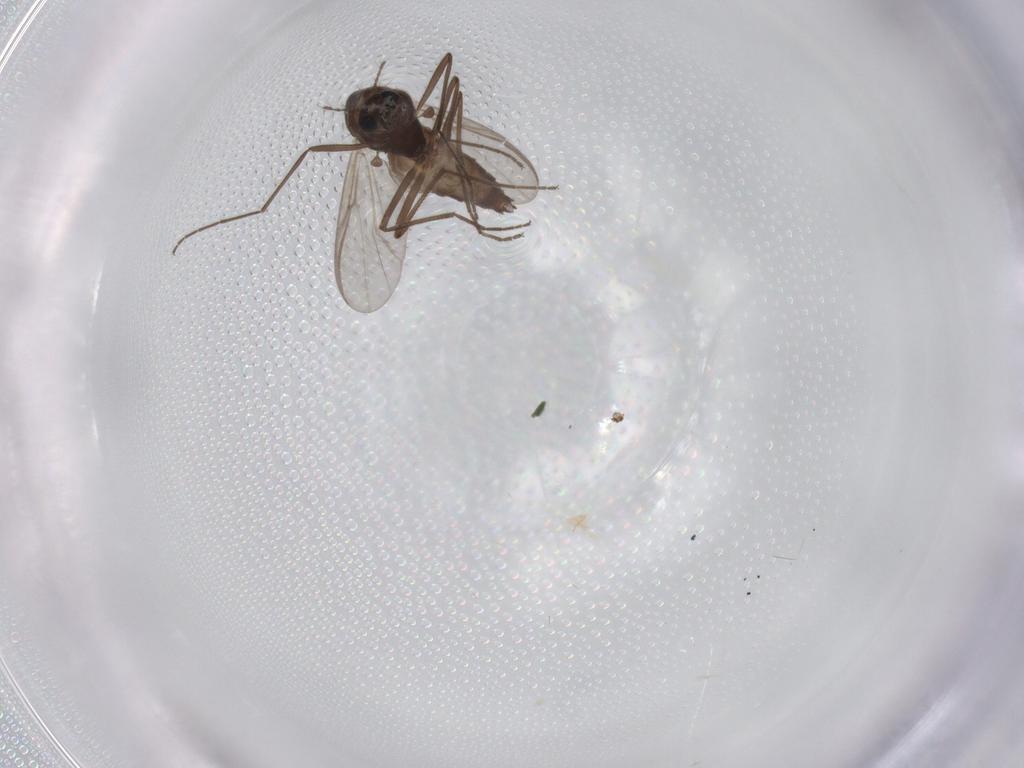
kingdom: Animalia
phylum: Arthropoda
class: Insecta
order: Diptera
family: Chironomidae
